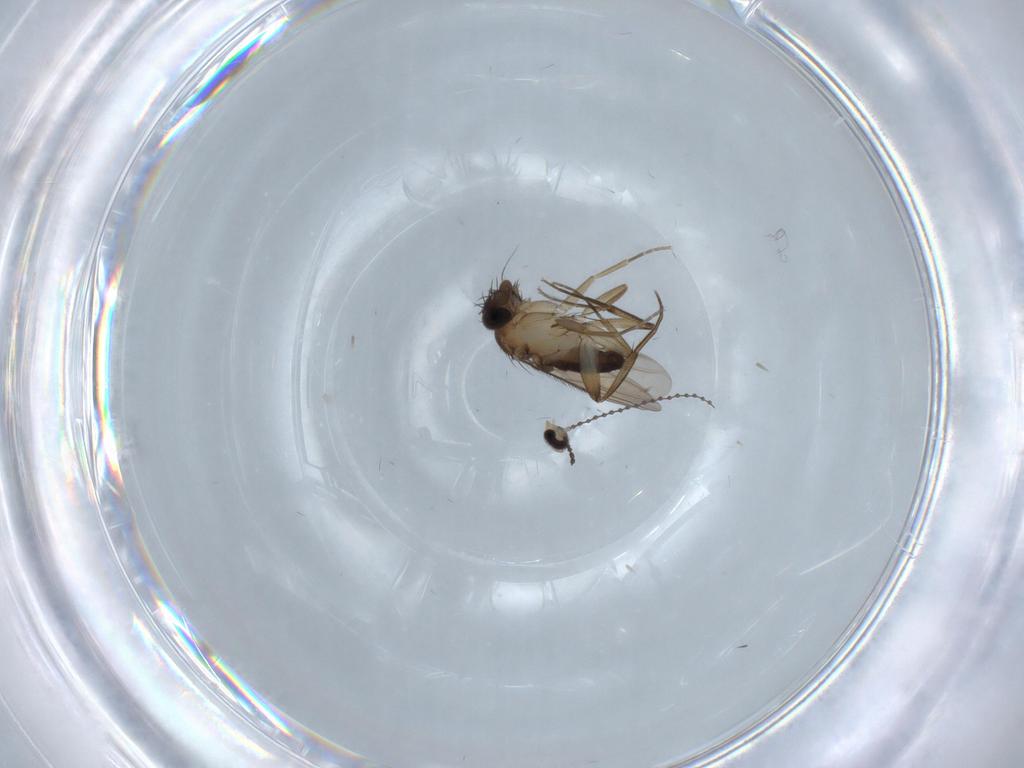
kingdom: Animalia
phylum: Arthropoda
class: Insecta
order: Diptera
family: Phoridae
